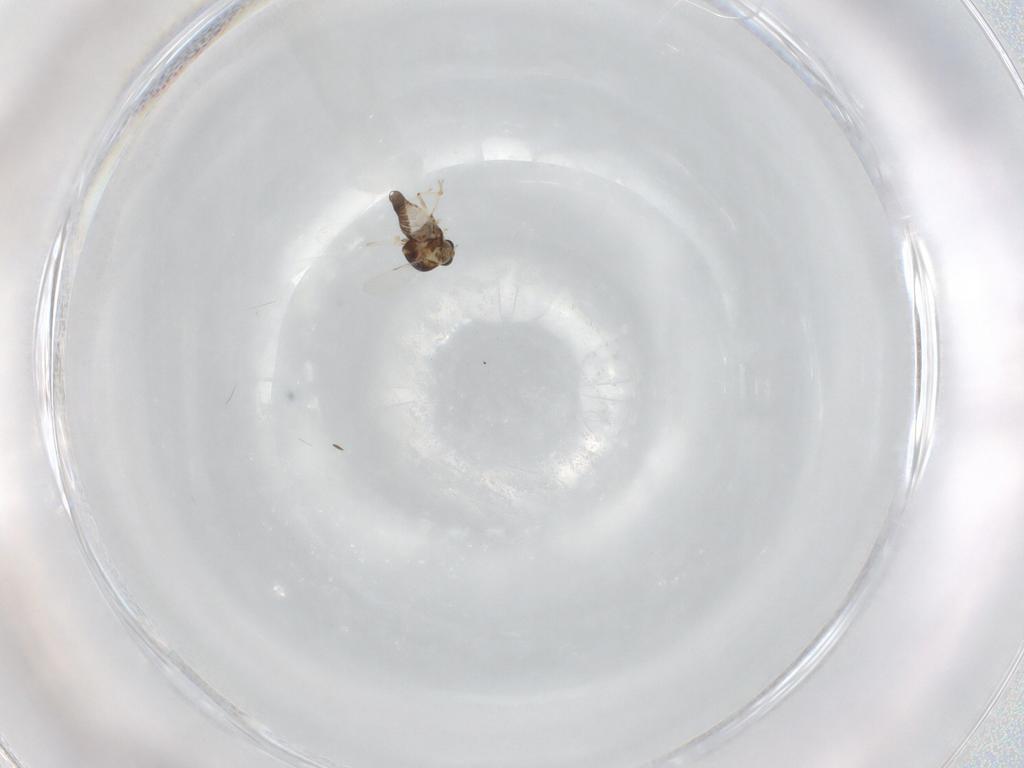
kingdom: Animalia
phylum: Arthropoda
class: Insecta
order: Diptera
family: Ceratopogonidae
